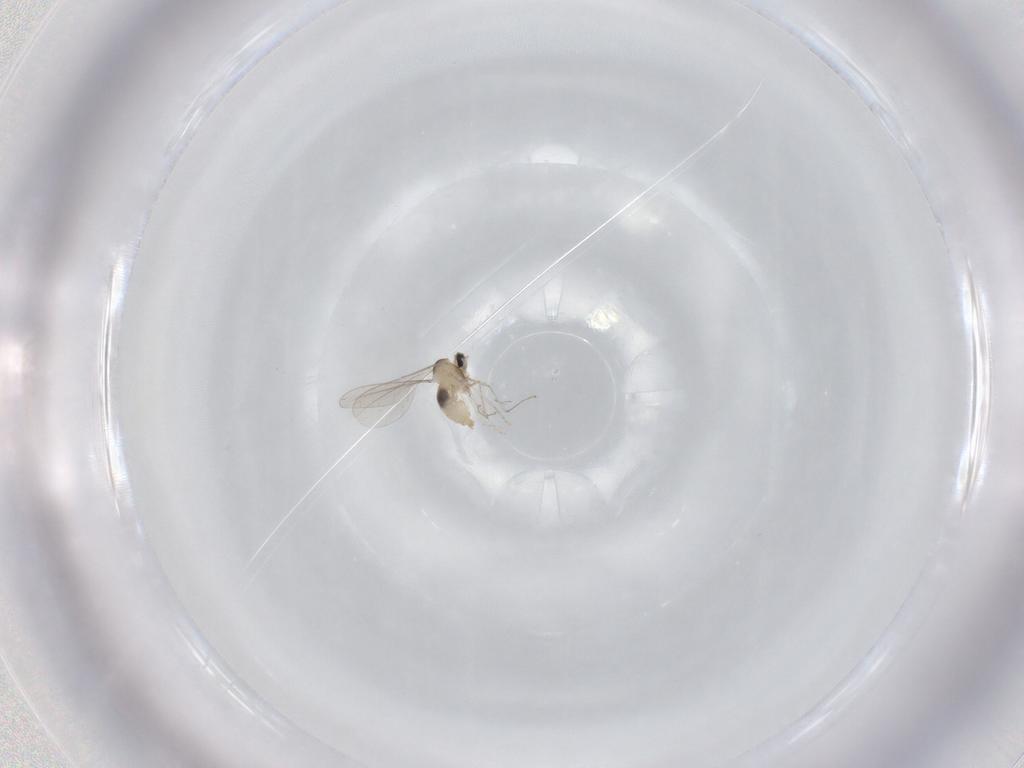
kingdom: Animalia
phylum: Arthropoda
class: Insecta
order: Diptera
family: Cecidomyiidae
